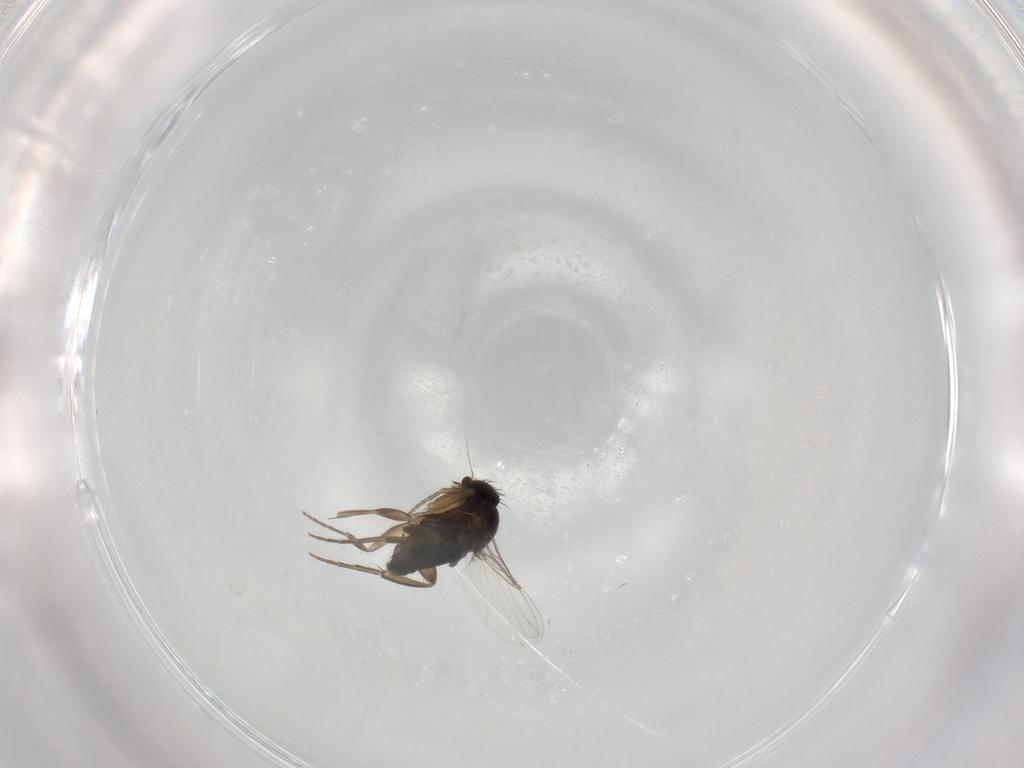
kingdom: Animalia
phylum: Arthropoda
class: Insecta
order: Diptera
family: Phoridae
